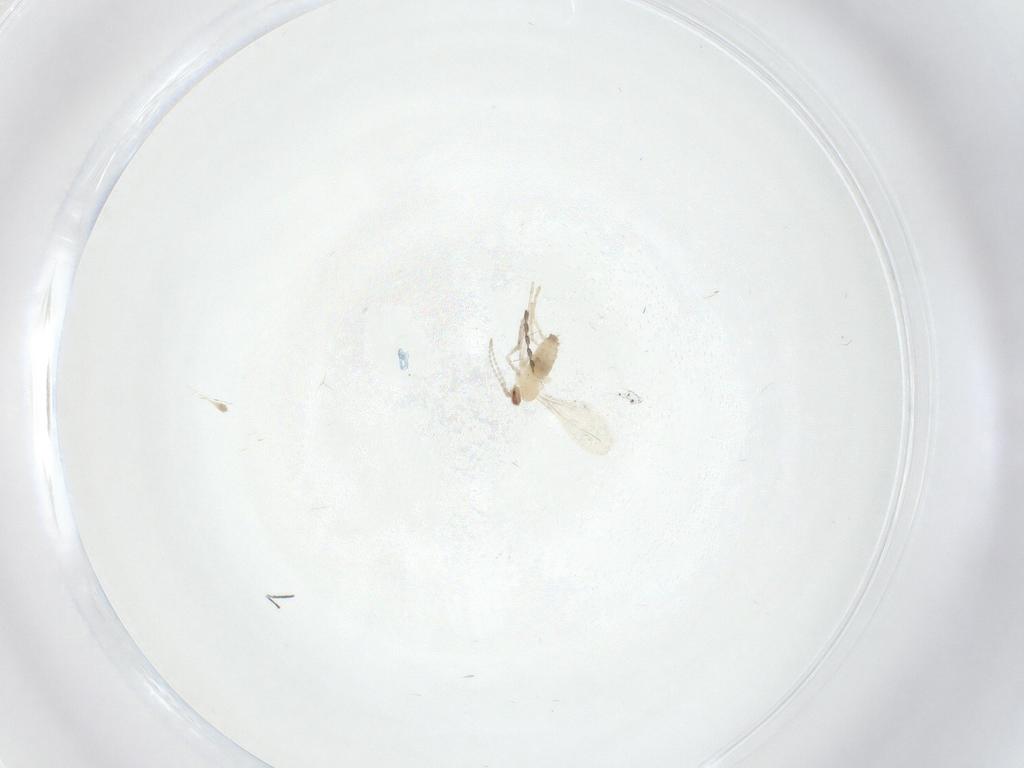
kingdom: Animalia
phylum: Arthropoda
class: Insecta
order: Diptera
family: Cecidomyiidae
